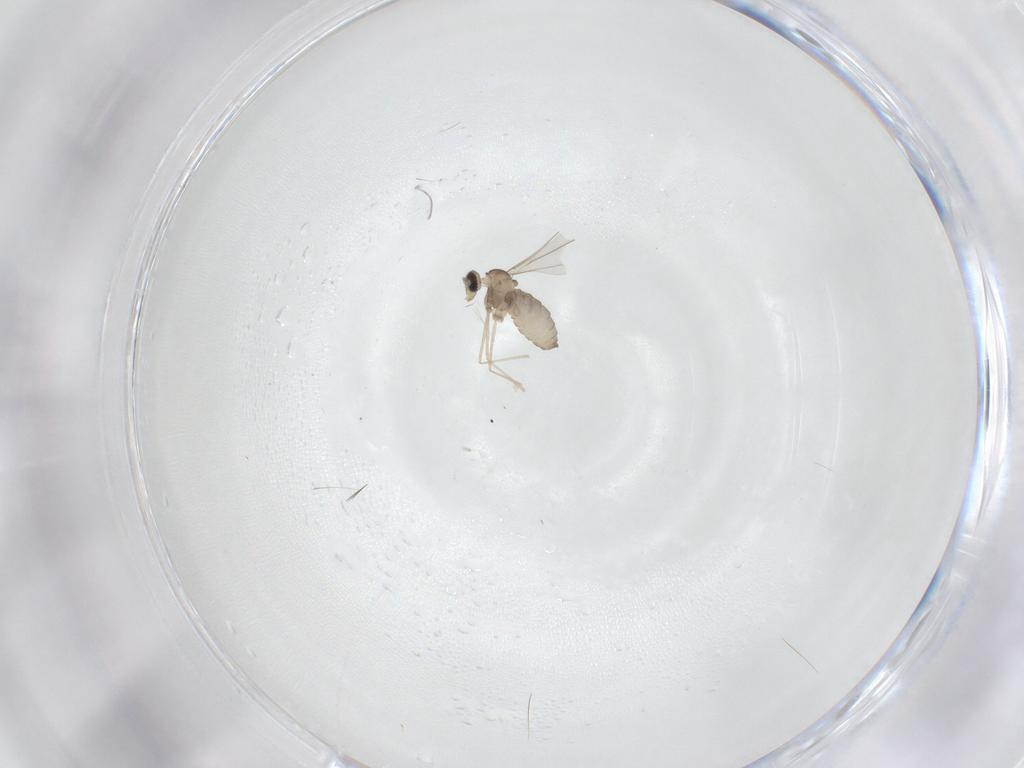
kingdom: Animalia
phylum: Arthropoda
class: Insecta
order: Diptera
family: Cecidomyiidae
